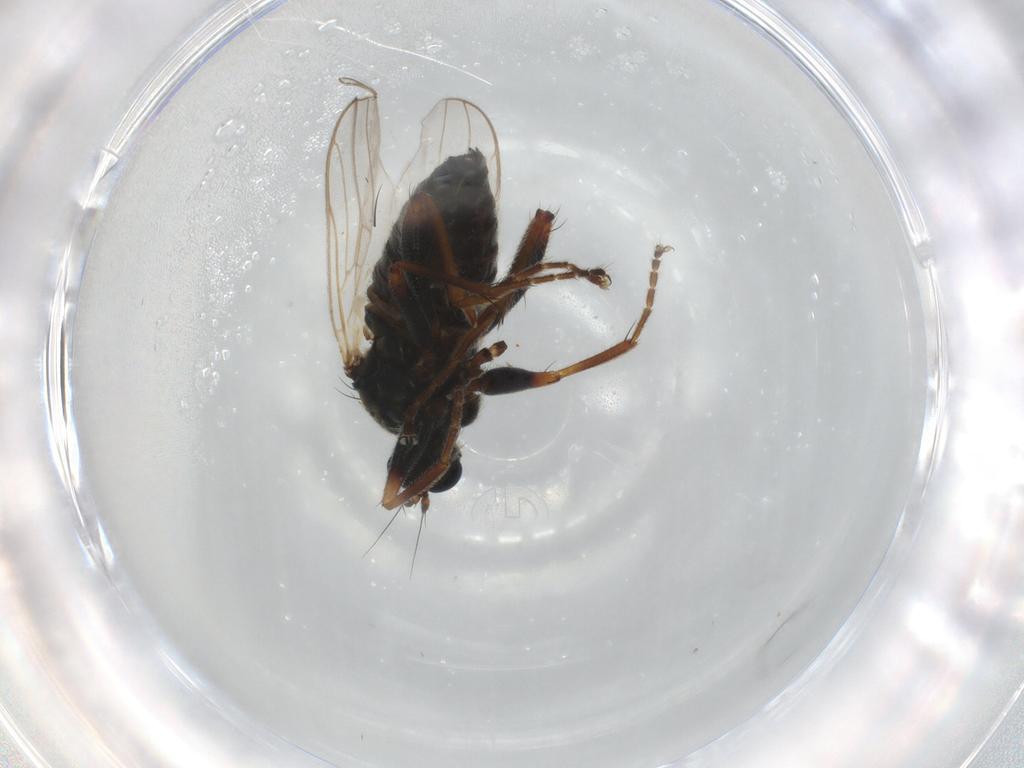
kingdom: Animalia
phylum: Arthropoda
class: Insecta
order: Diptera
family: Hybotidae
